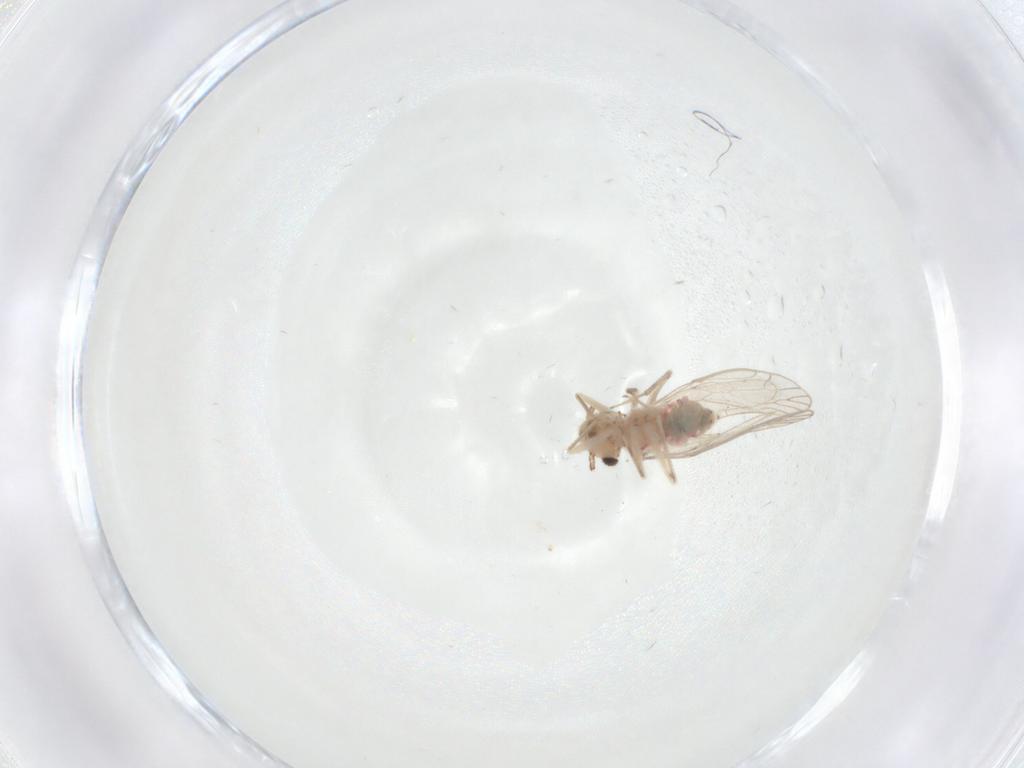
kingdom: Animalia
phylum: Arthropoda
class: Insecta
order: Psocodea
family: Caeciliusidae
